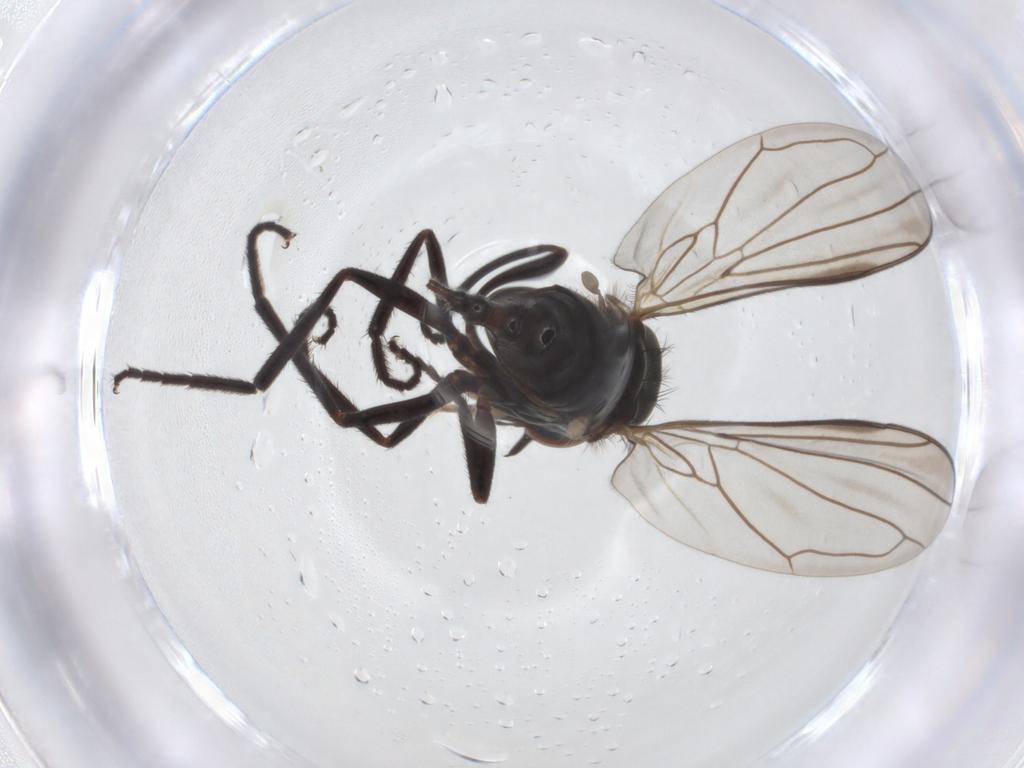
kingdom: Animalia
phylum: Arthropoda
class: Insecta
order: Diptera
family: Empididae
